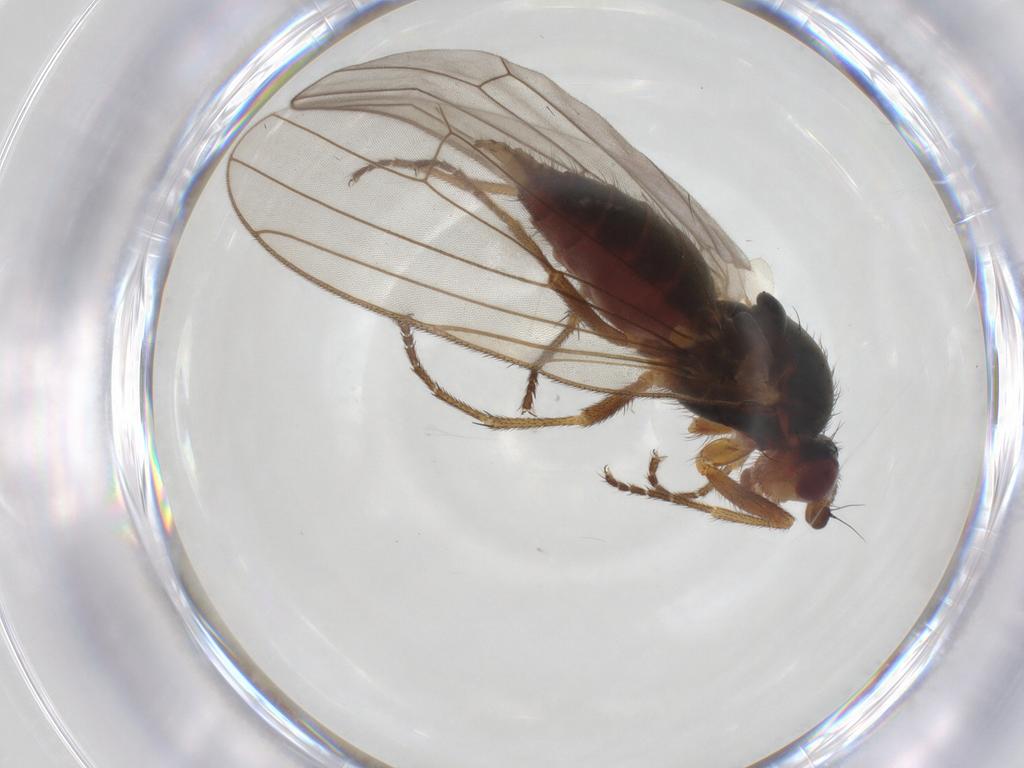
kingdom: Animalia
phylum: Arthropoda
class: Insecta
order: Diptera
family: Heleomyzidae
